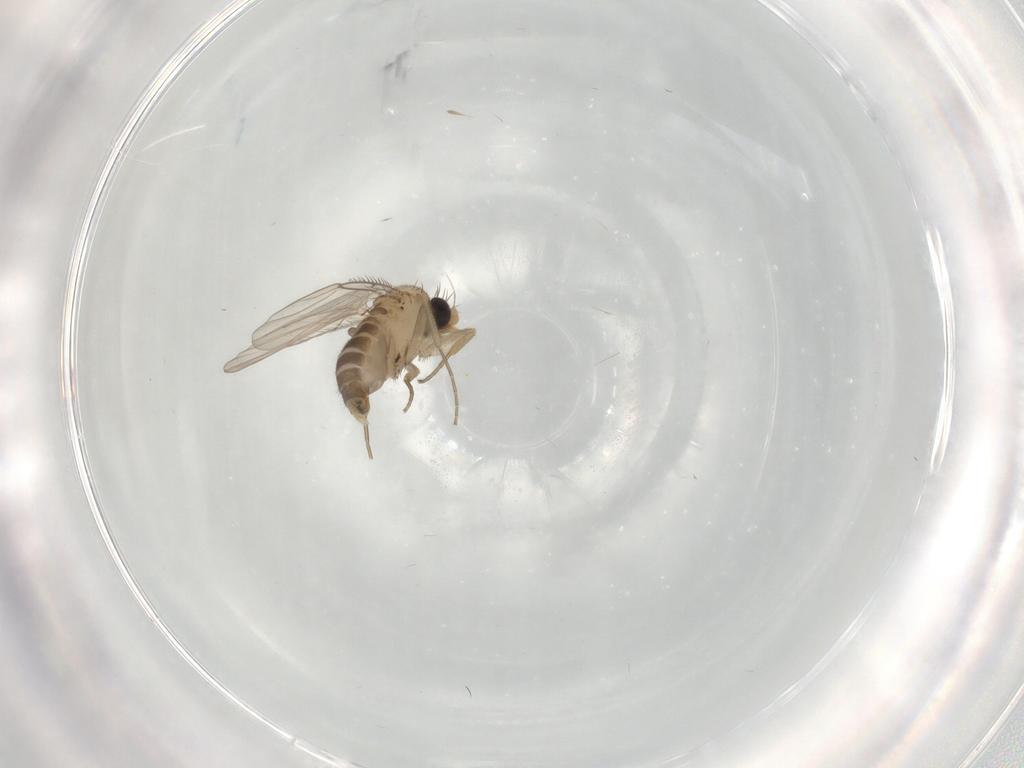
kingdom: Animalia
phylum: Arthropoda
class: Insecta
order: Diptera
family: Limoniidae
